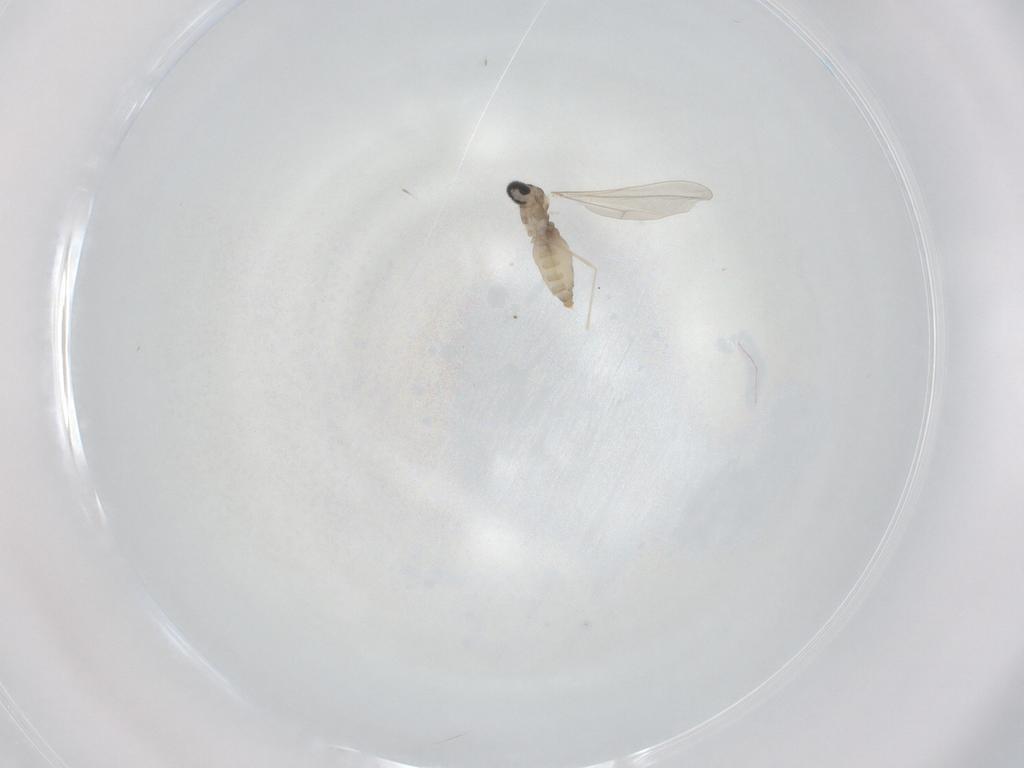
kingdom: Animalia
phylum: Arthropoda
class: Insecta
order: Diptera
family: Cecidomyiidae
